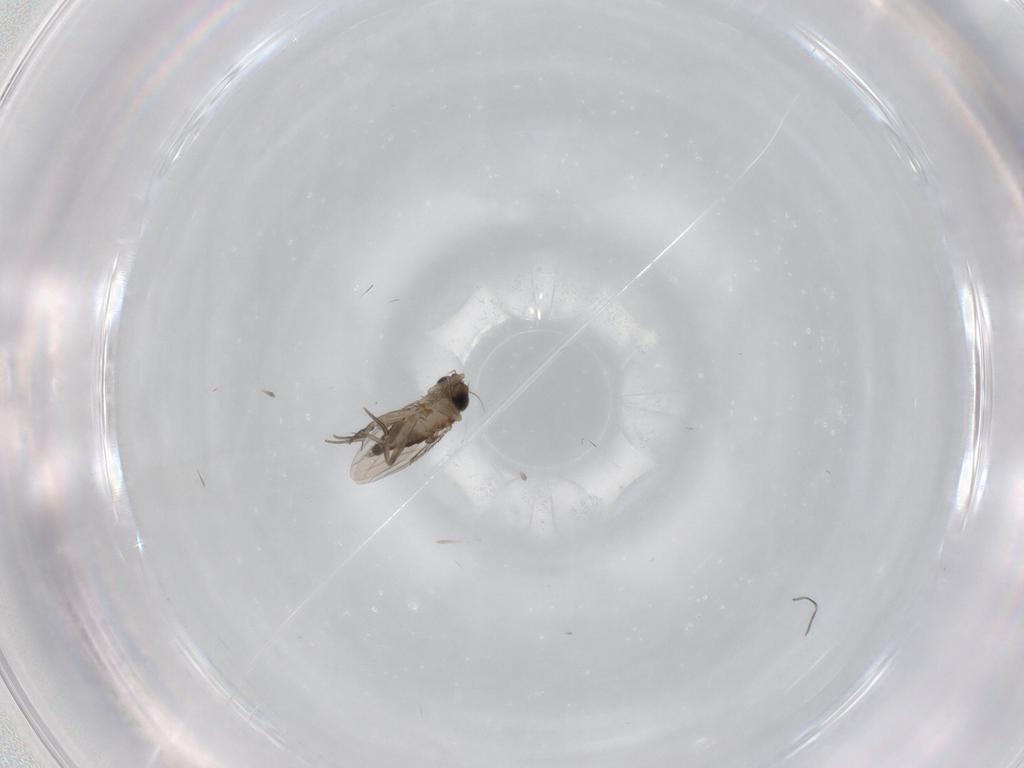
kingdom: Animalia
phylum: Arthropoda
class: Insecta
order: Diptera
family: Phoridae
